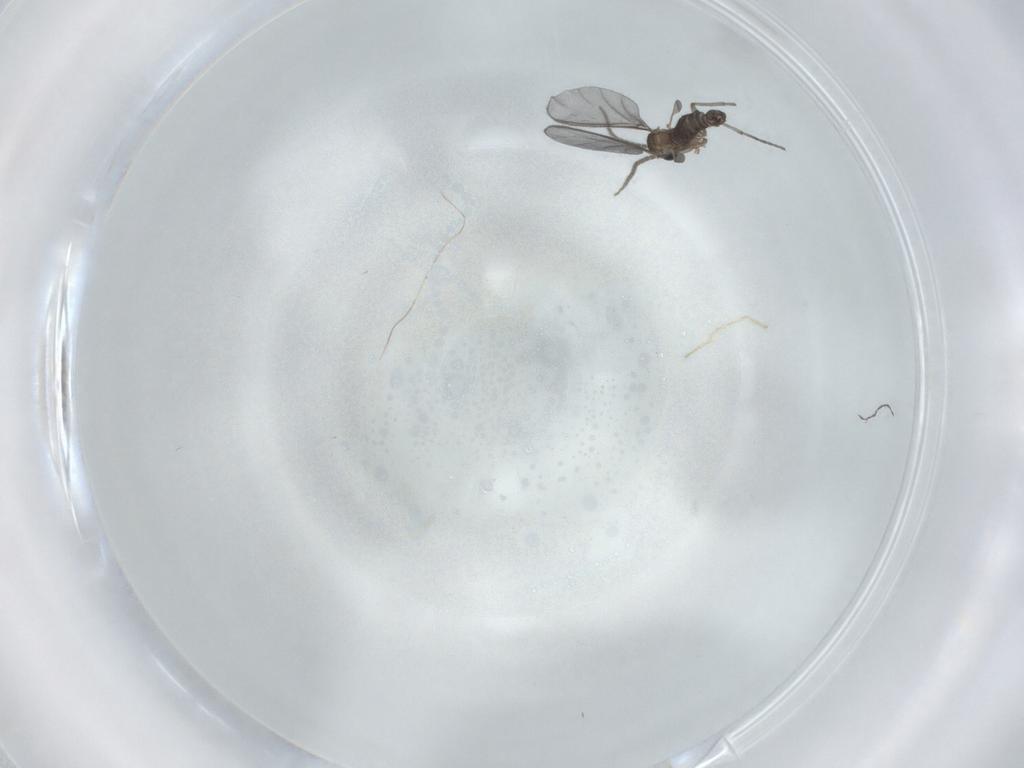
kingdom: Animalia
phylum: Arthropoda
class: Insecta
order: Diptera
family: Sciaridae
